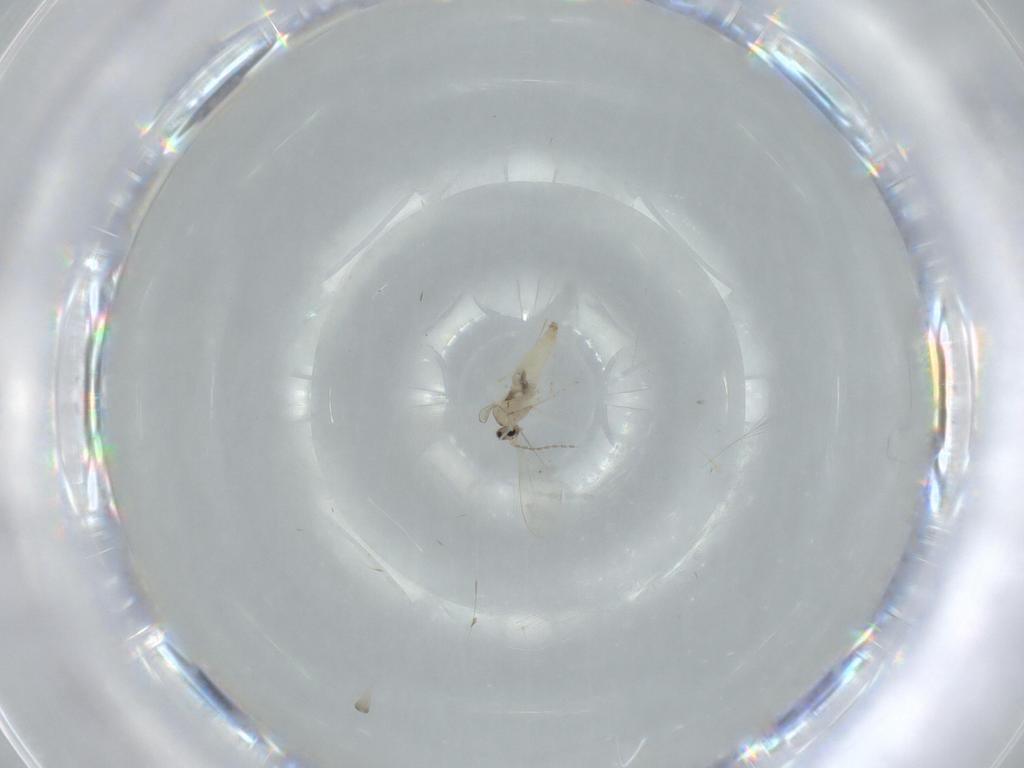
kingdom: Animalia
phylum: Arthropoda
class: Insecta
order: Diptera
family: Cecidomyiidae
